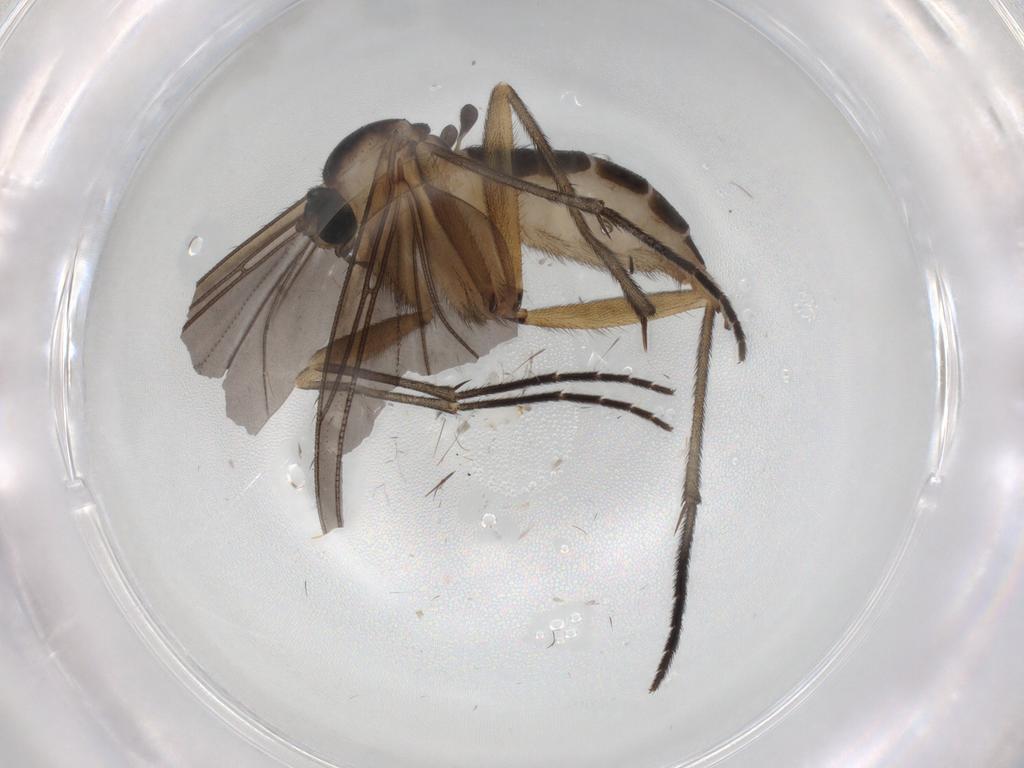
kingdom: Animalia
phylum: Arthropoda
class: Insecta
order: Diptera
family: Sciaridae
